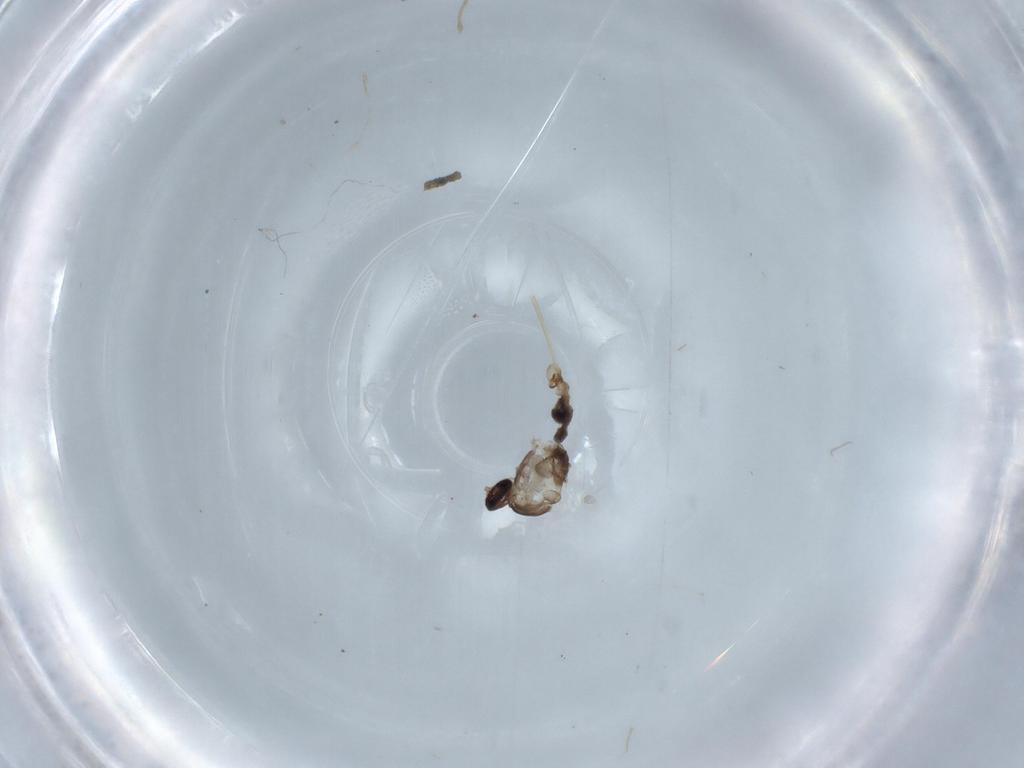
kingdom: Animalia
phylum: Arthropoda
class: Insecta
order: Diptera
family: Cecidomyiidae
